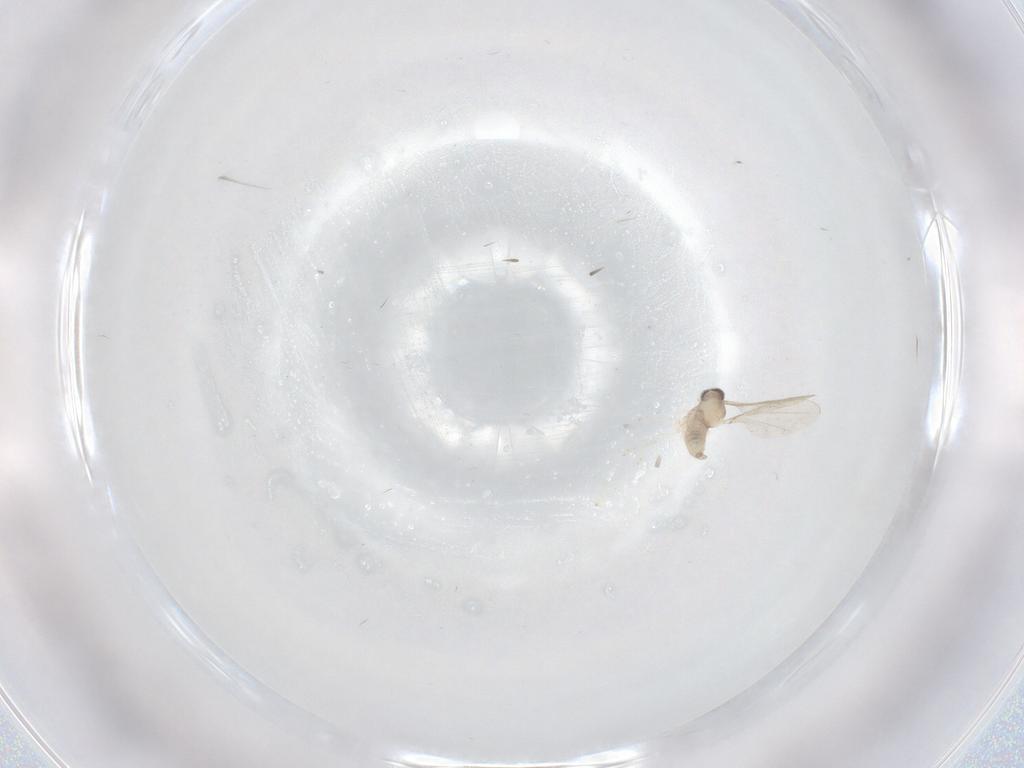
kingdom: Animalia
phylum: Arthropoda
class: Insecta
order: Diptera
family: Cecidomyiidae
